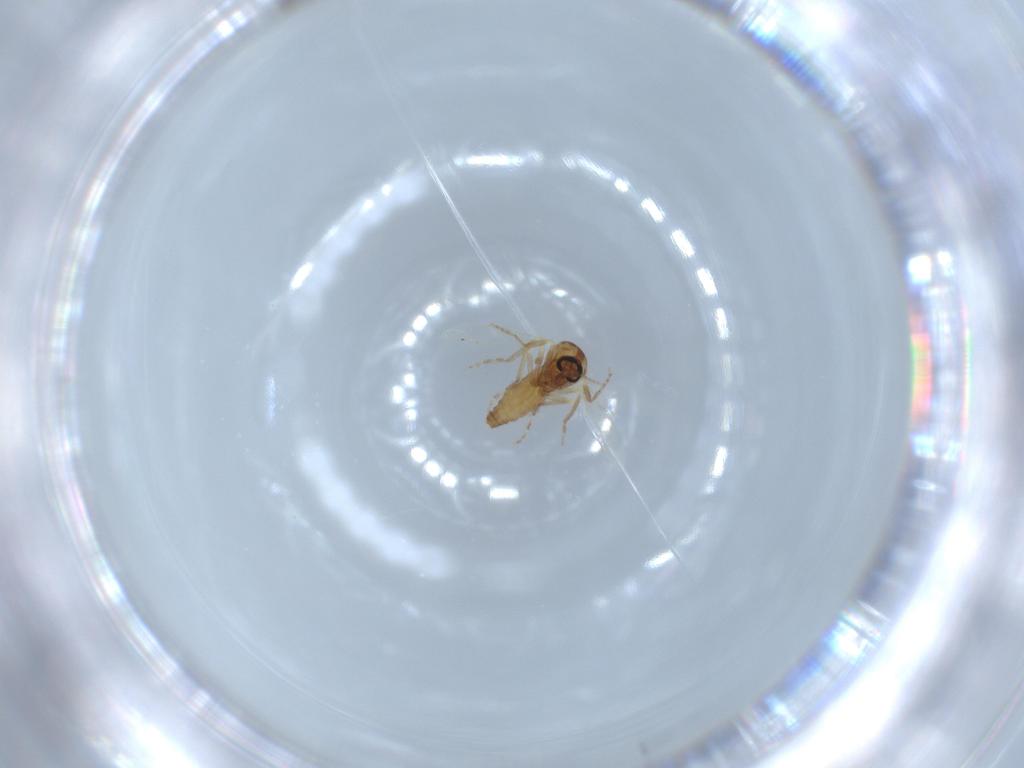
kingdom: Animalia
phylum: Arthropoda
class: Insecta
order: Diptera
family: Ceratopogonidae
